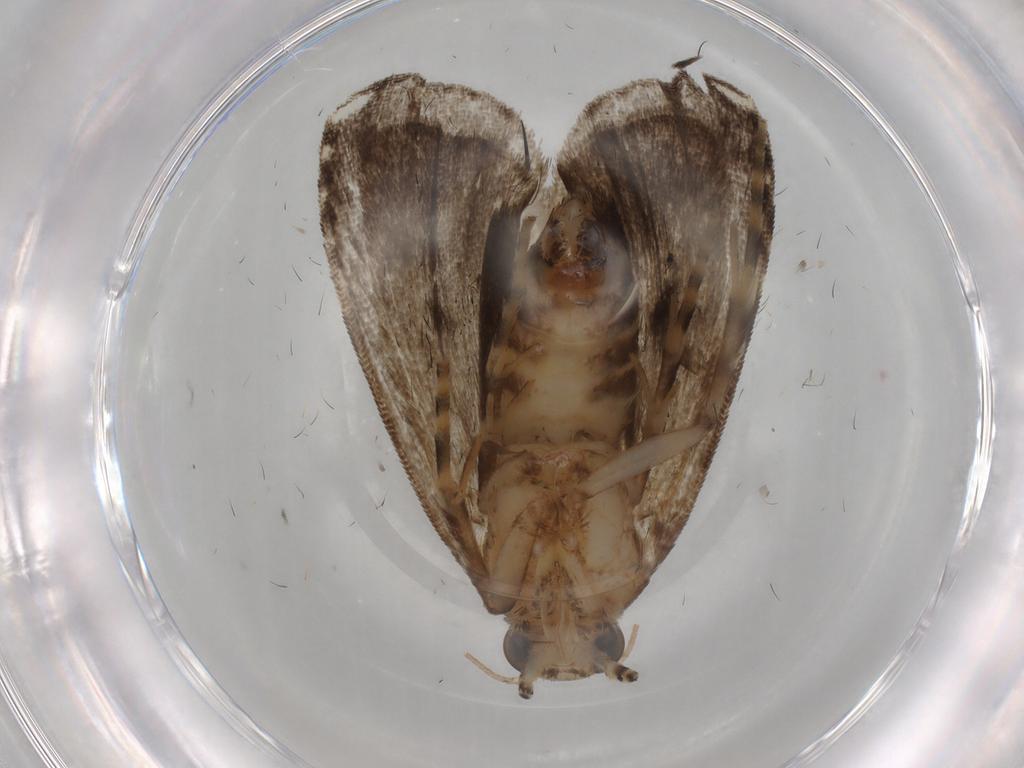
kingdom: Animalia
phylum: Arthropoda
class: Insecta
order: Lepidoptera
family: Immidae
